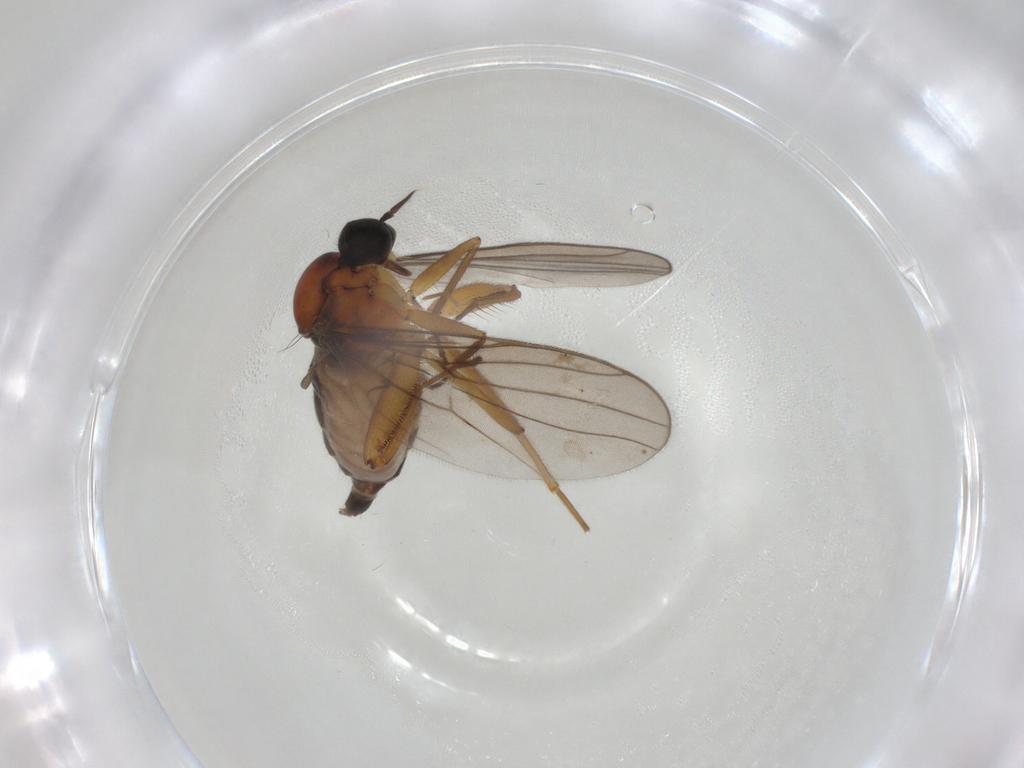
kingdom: Animalia
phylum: Arthropoda
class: Insecta
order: Diptera
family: Hybotidae
